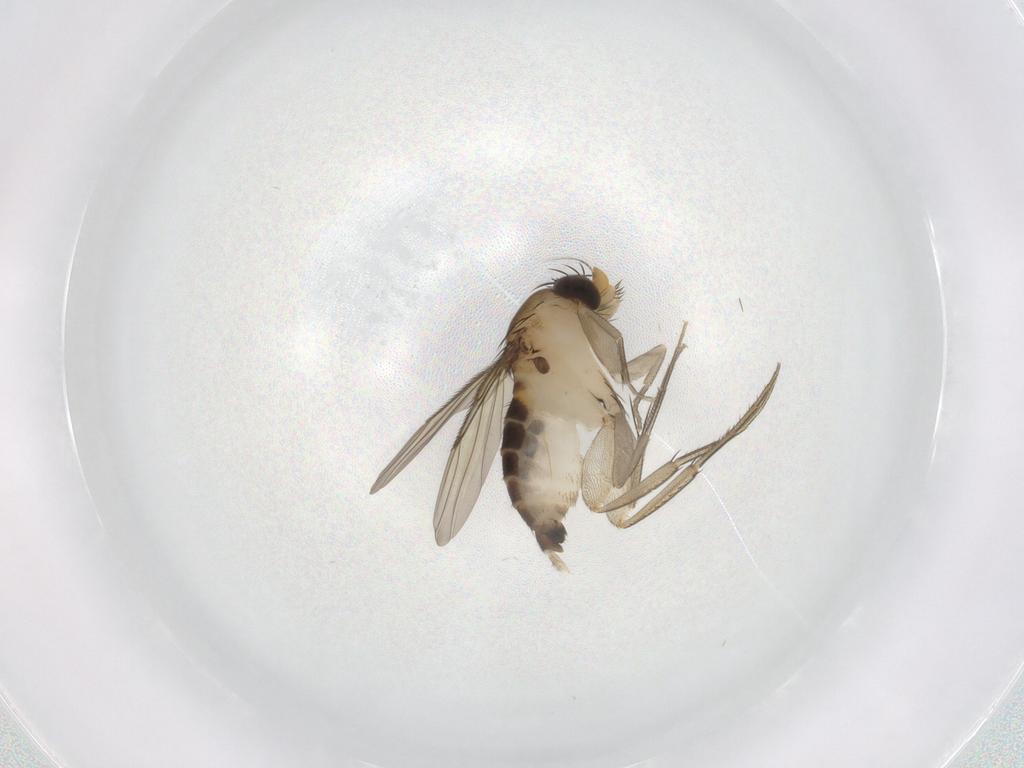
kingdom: Animalia
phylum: Arthropoda
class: Insecta
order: Diptera
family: Phoridae
